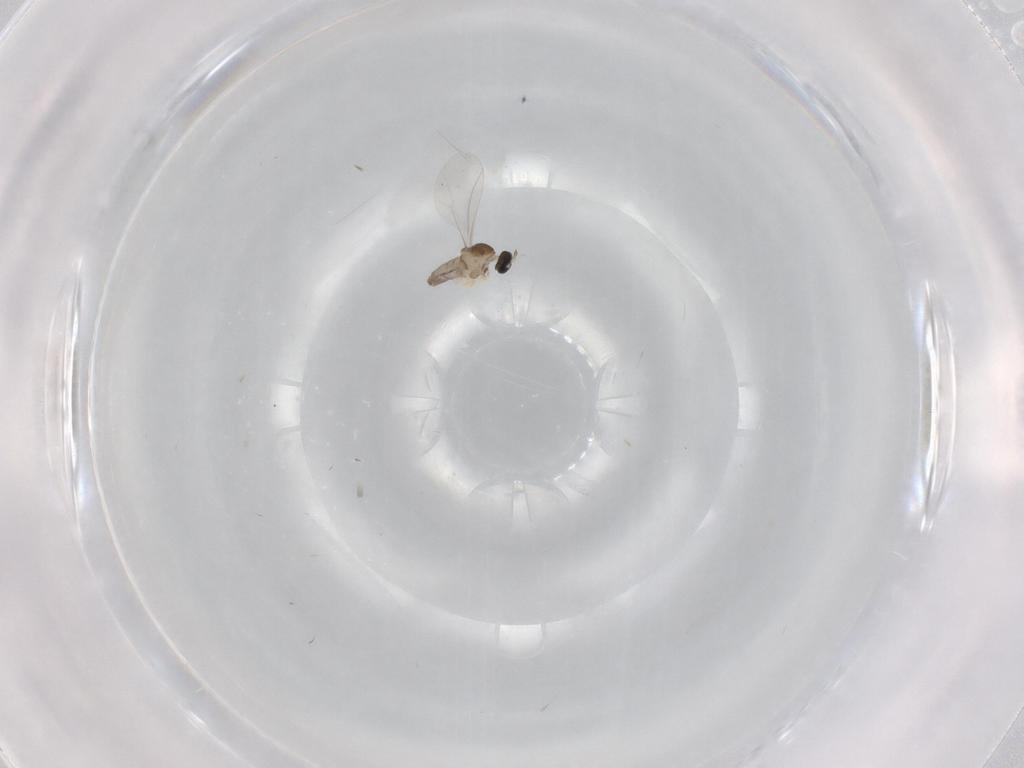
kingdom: Animalia
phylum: Arthropoda
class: Insecta
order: Diptera
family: Cecidomyiidae
